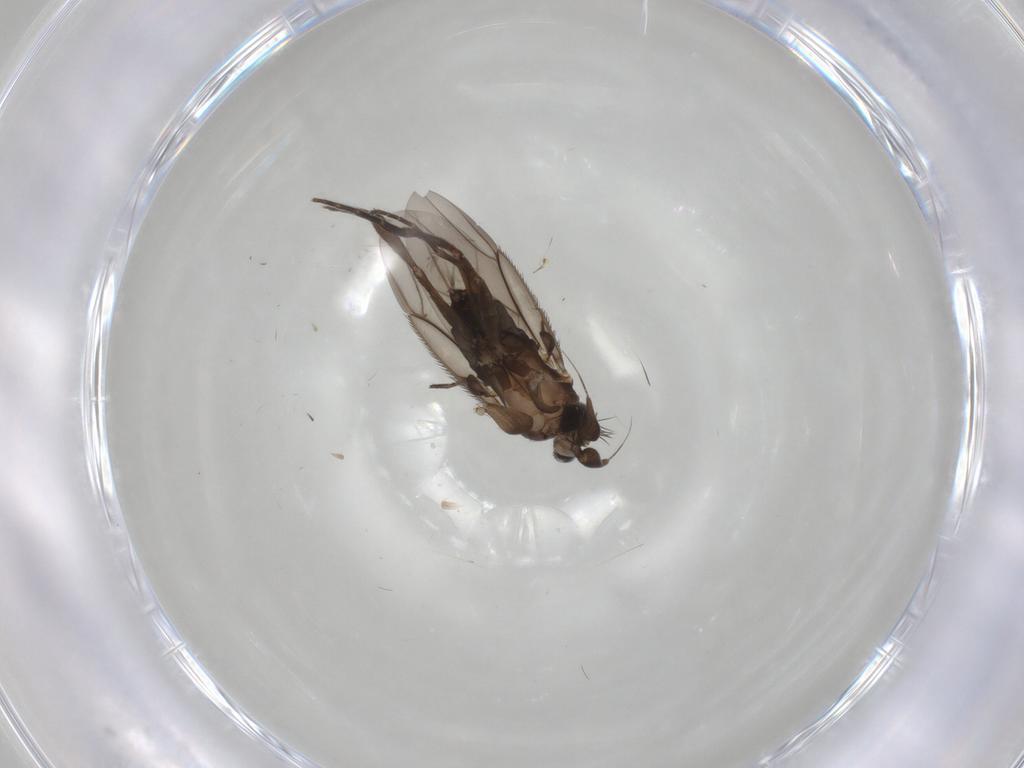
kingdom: Animalia
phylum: Arthropoda
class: Insecta
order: Diptera
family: Phoridae
